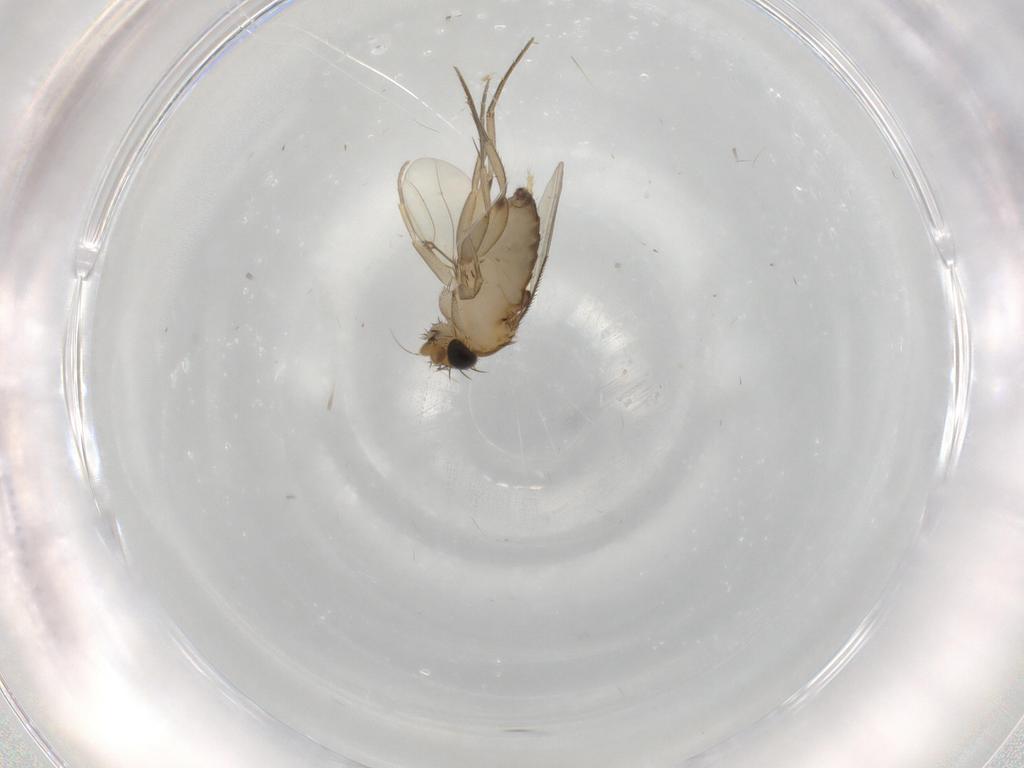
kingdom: Animalia
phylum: Arthropoda
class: Insecta
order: Diptera
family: Phoridae
